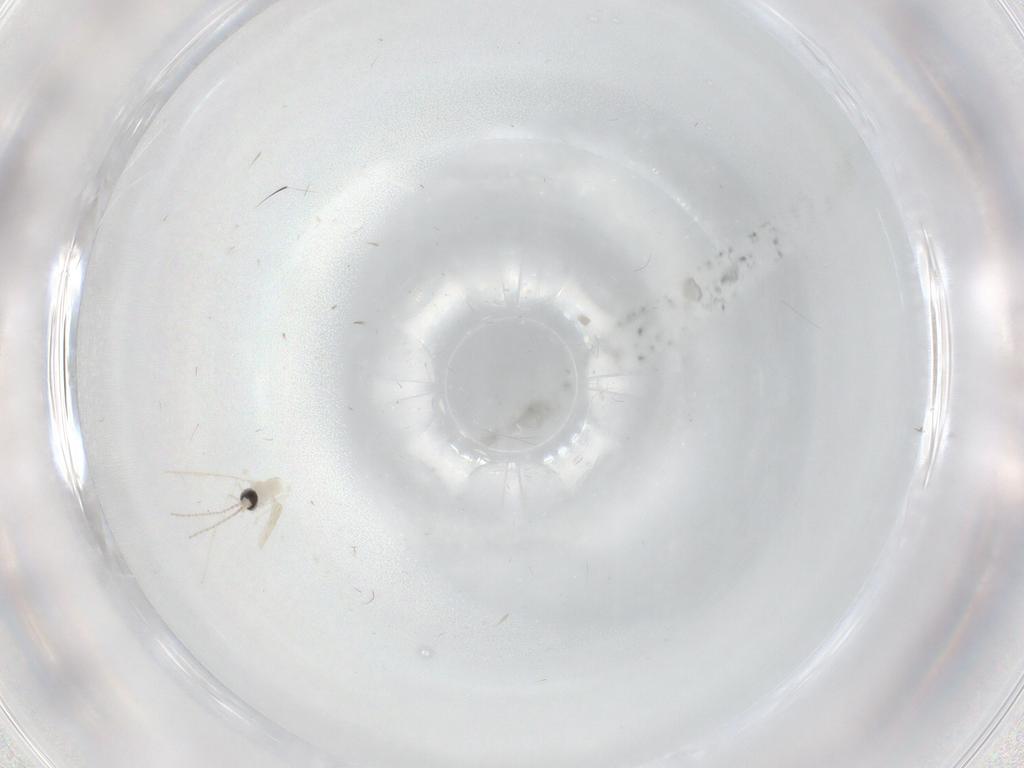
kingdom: Animalia
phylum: Arthropoda
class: Insecta
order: Diptera
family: Cecidomyiidae
